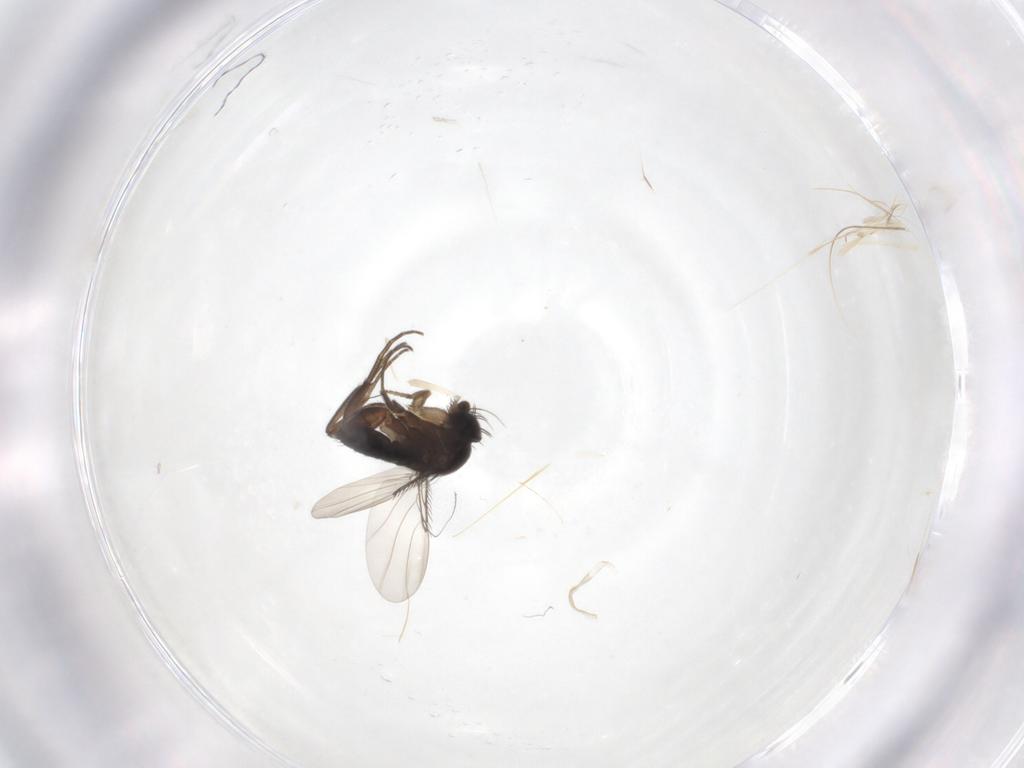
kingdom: Animalia
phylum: Arthropoda
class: Insecta
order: Diptera
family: Phoridae
